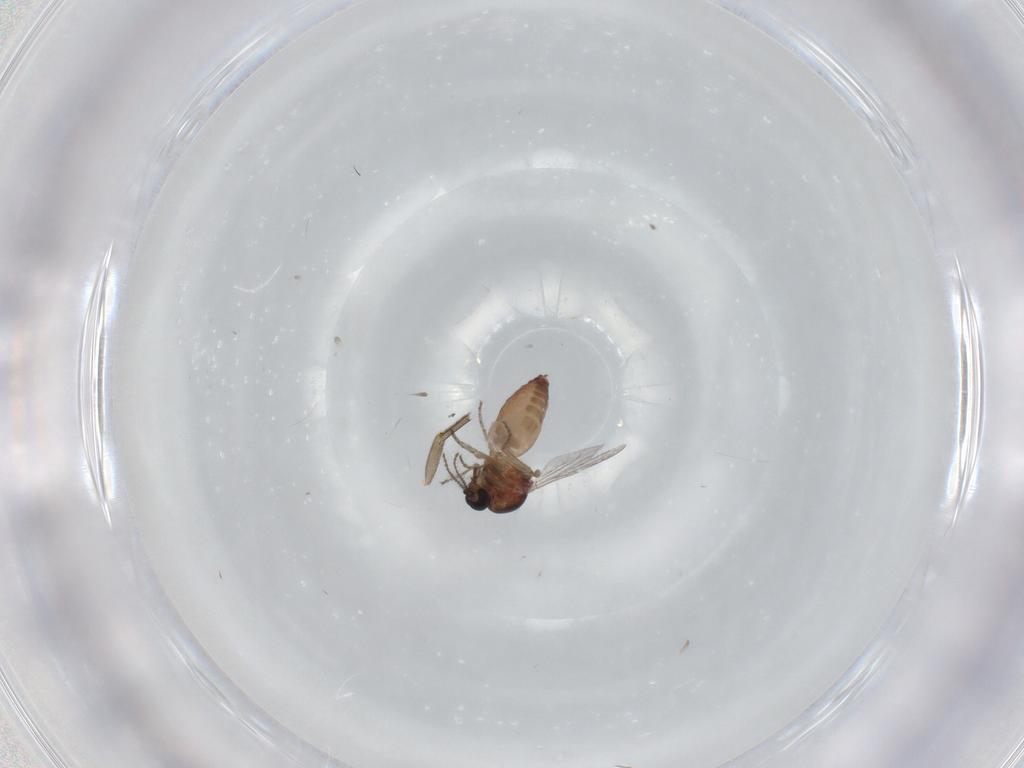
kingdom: Animalia
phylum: Arthropoda
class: Insecta
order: Diptera
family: Phoridae
